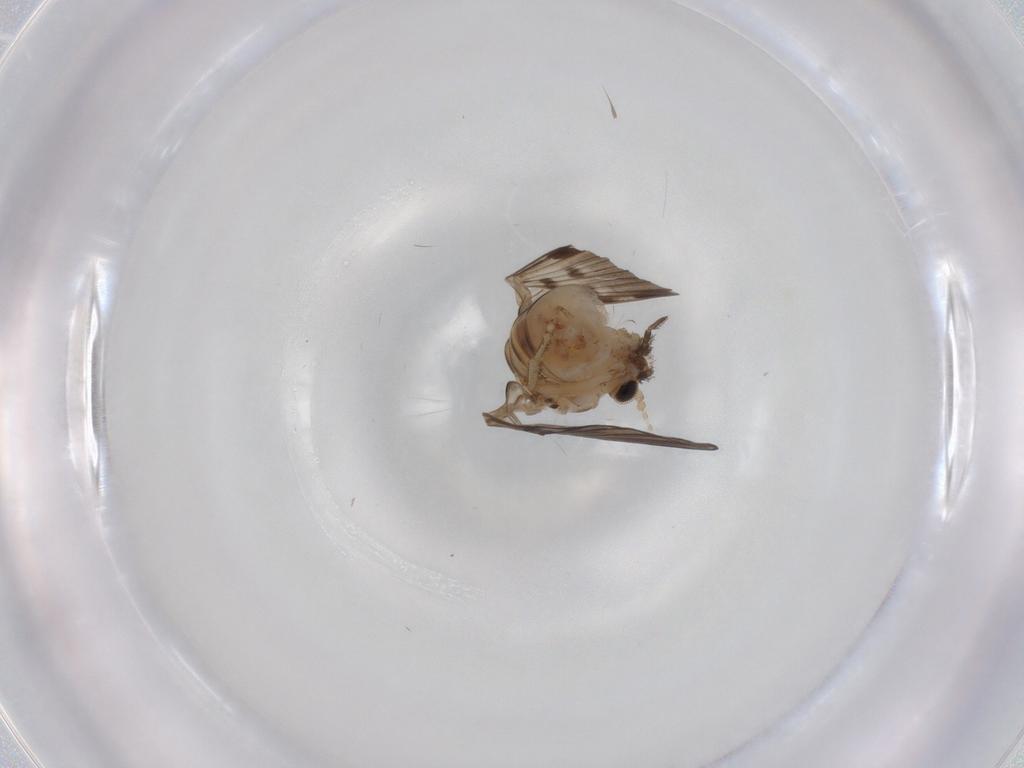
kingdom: Animalia
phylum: Arthropoda
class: Insecta
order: Diptera
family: Psychodidae
